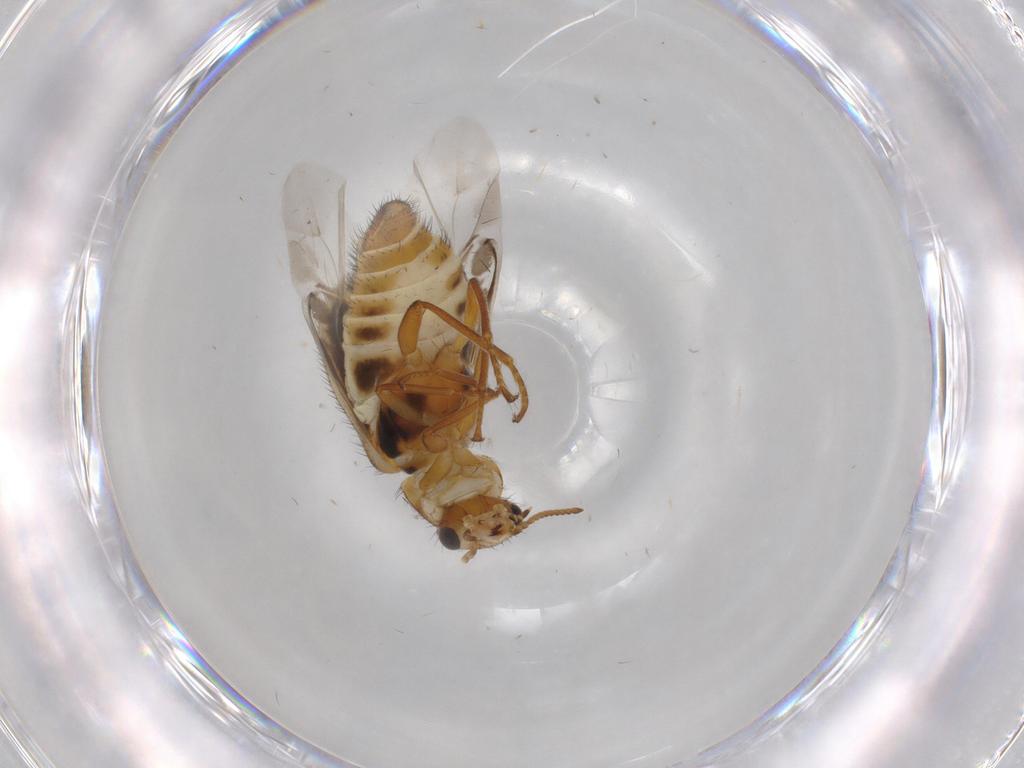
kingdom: Animalia
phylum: Arthropoda
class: Insecta
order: Coleoptera
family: Melyridae
